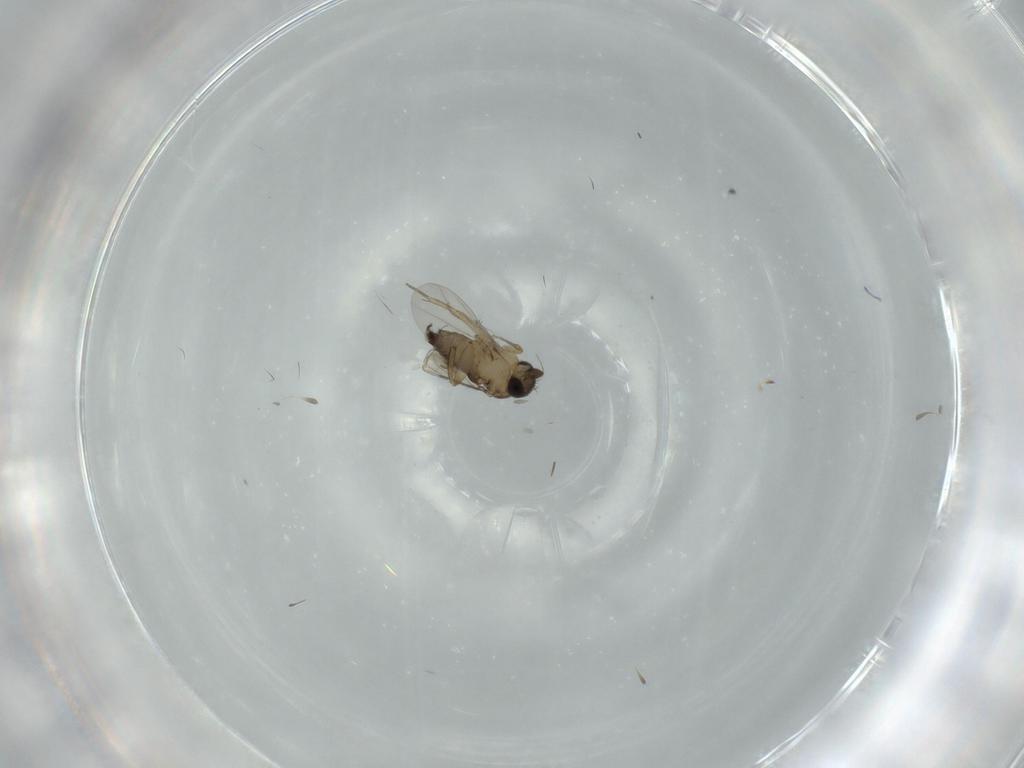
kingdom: Animalia
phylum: Arthropoda
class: Insecta
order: Diptera
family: Phoridae
